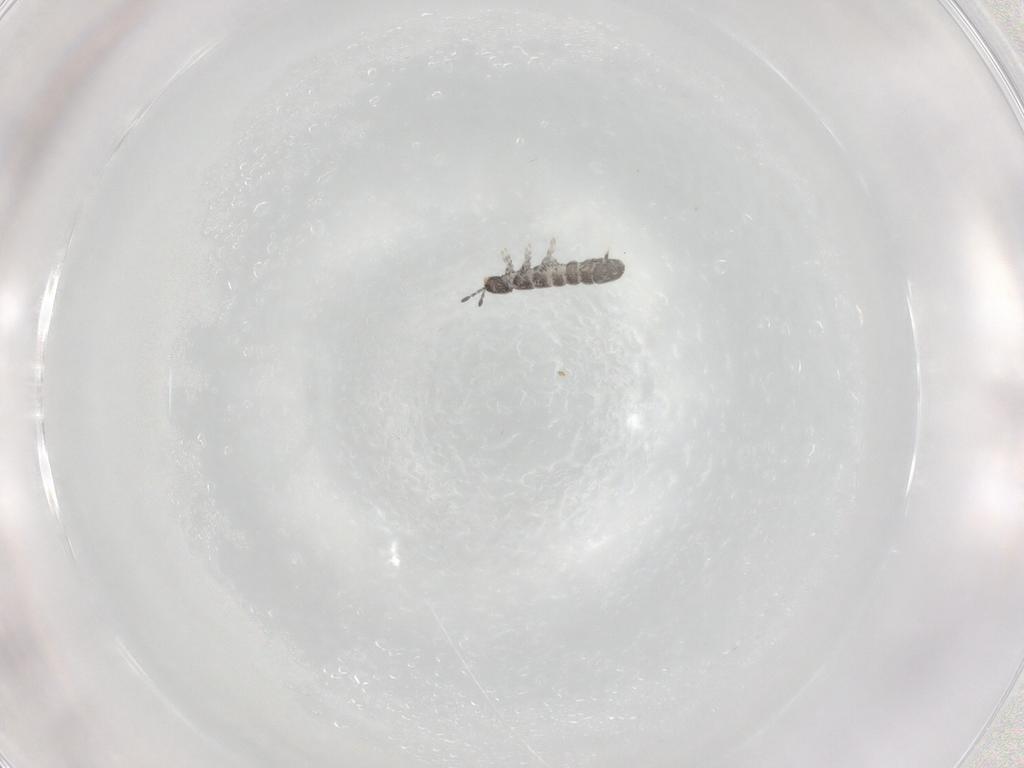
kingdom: Animalia
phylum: Arthropoda
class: Collembola
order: Entomobryomorpha
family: Isotomidae
